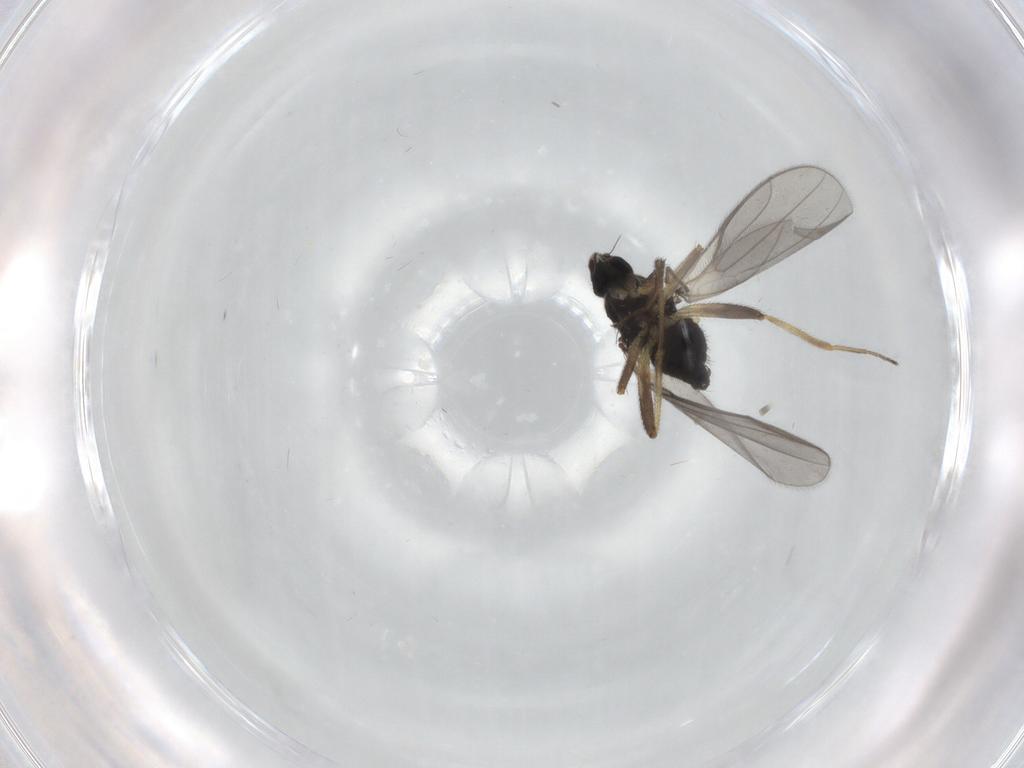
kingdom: Animalia
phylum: Arthropoda
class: Insecta
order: Diptera
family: Hybotidae
